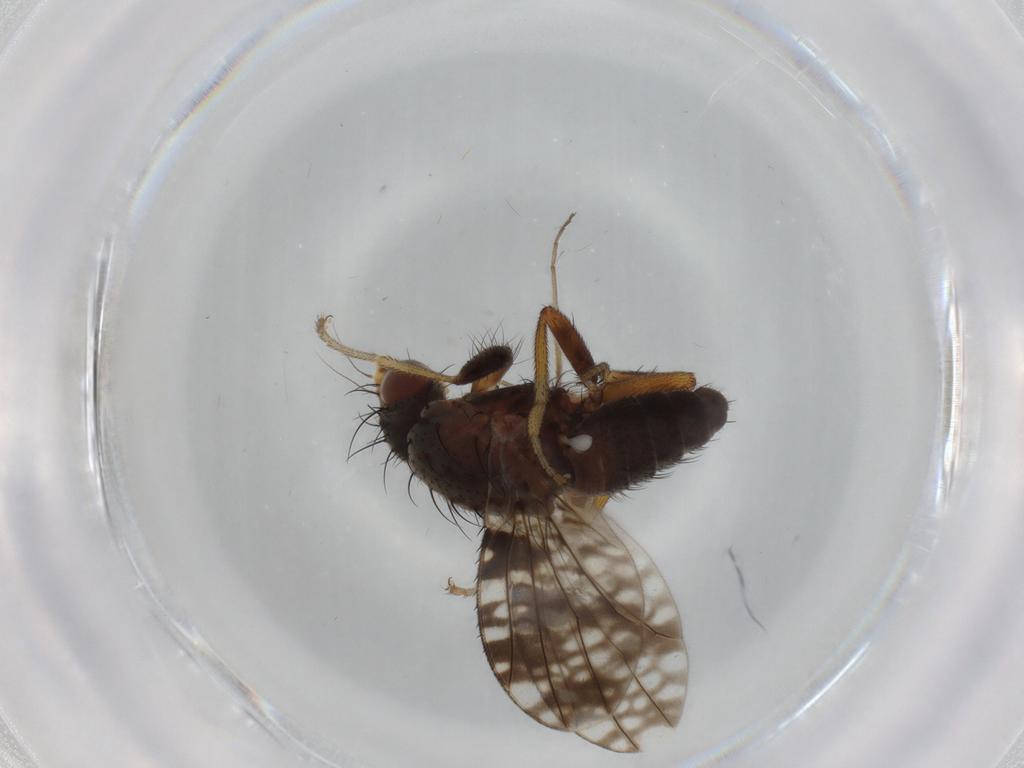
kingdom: Animalia
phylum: Arthropoda
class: Insecta
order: Diptera
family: Tephritidae
